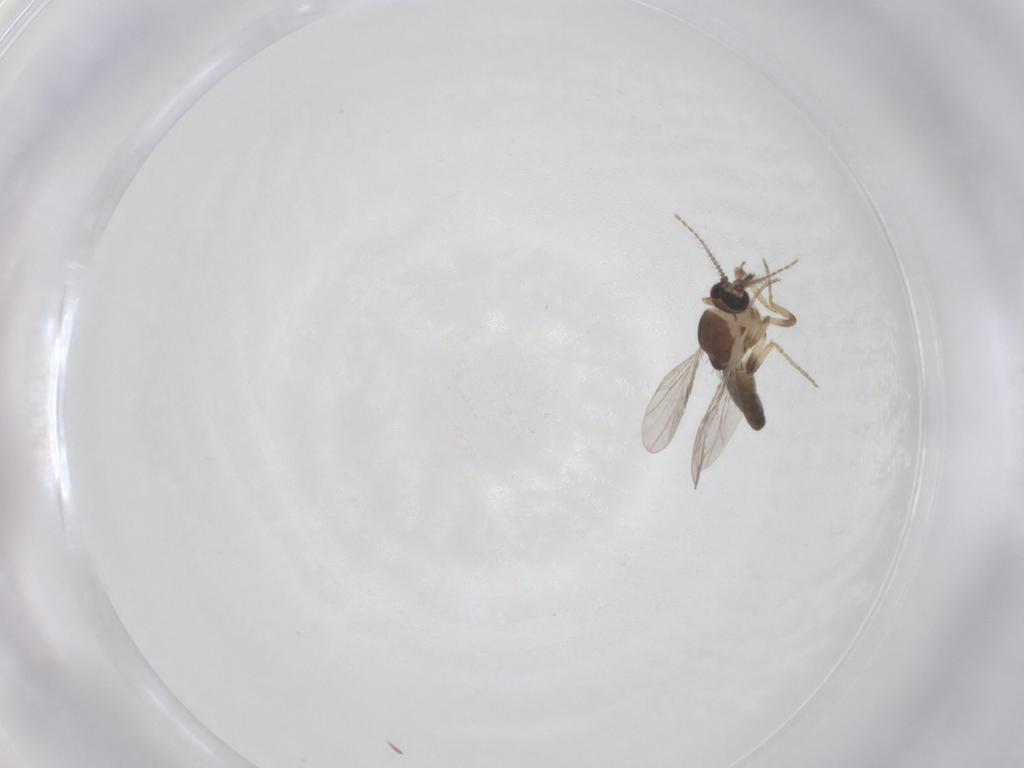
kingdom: Animalia
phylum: Arthropoda
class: Insecta
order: Diptera
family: Ceratopogonidae
